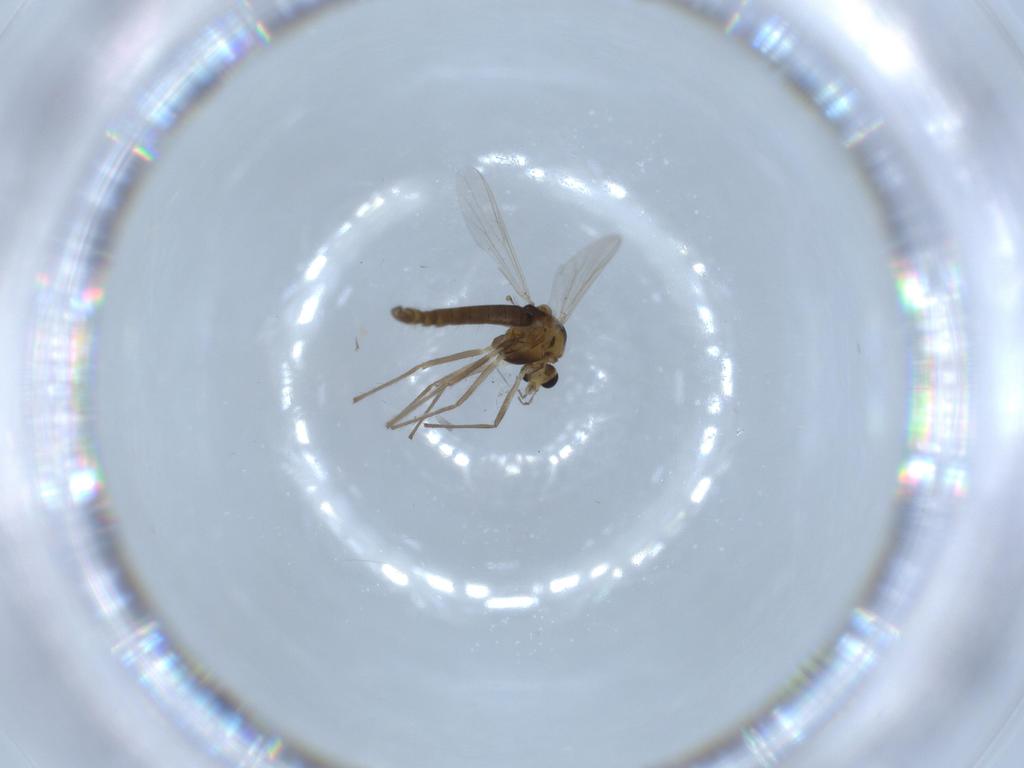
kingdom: Animalia
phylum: Arthropoda
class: Insecta
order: Diptera
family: Chironomidae
